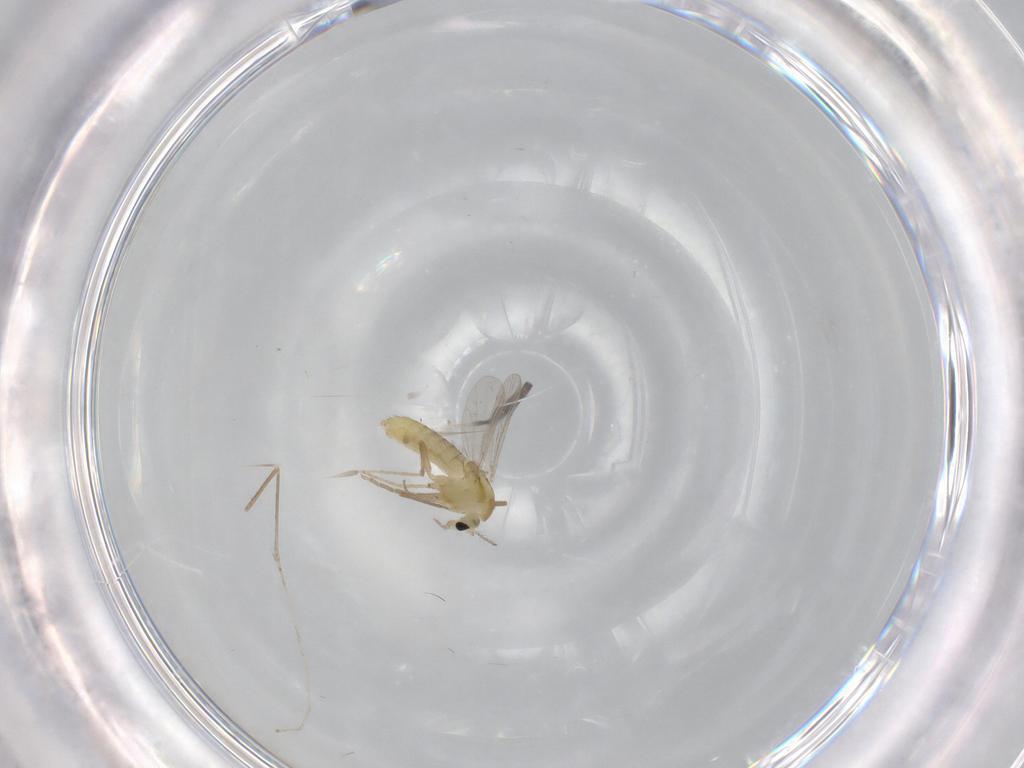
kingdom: Animalia
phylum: Arthropoda
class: Insecta
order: Diptera
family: Chironomidae
